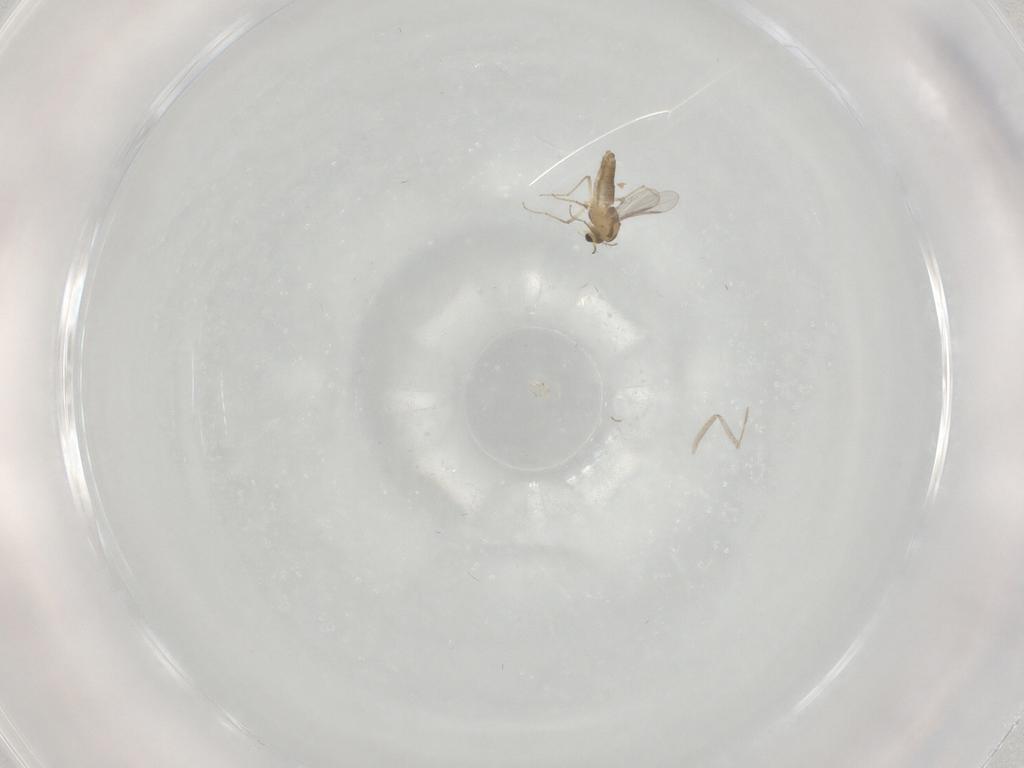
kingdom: Animalia
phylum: Arthropoda
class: Insecta
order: Diptera
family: Chironomidae
